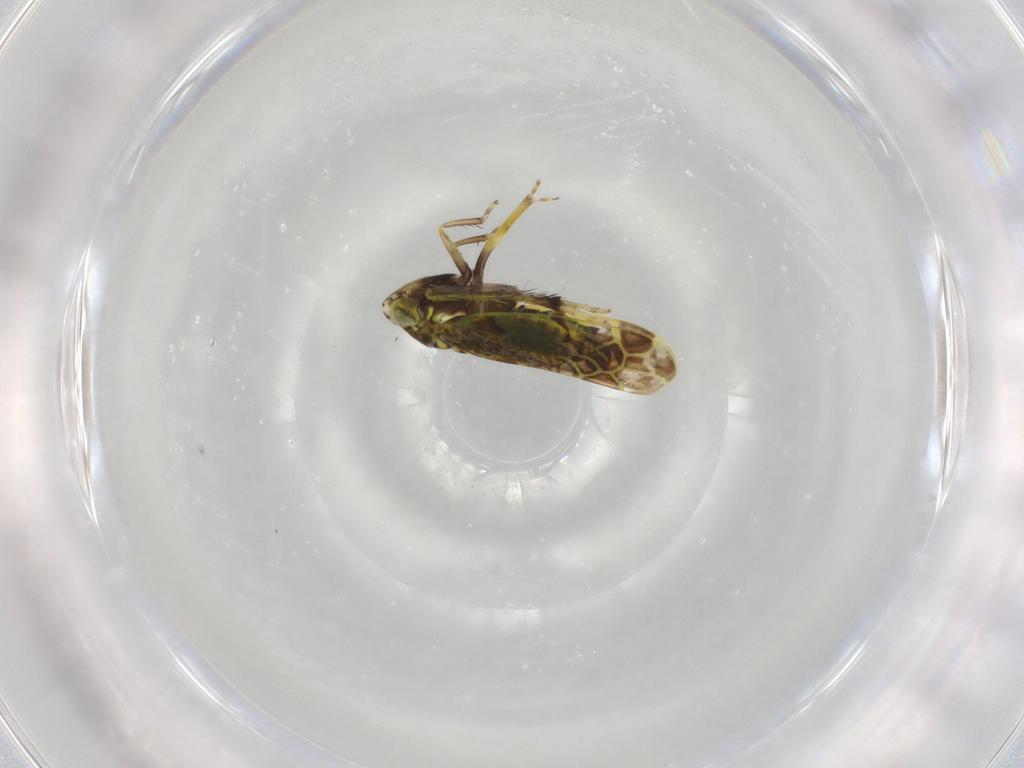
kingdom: Animalia
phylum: Arthropoda
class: Insecta
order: Hemiptera
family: Cicadellidae
